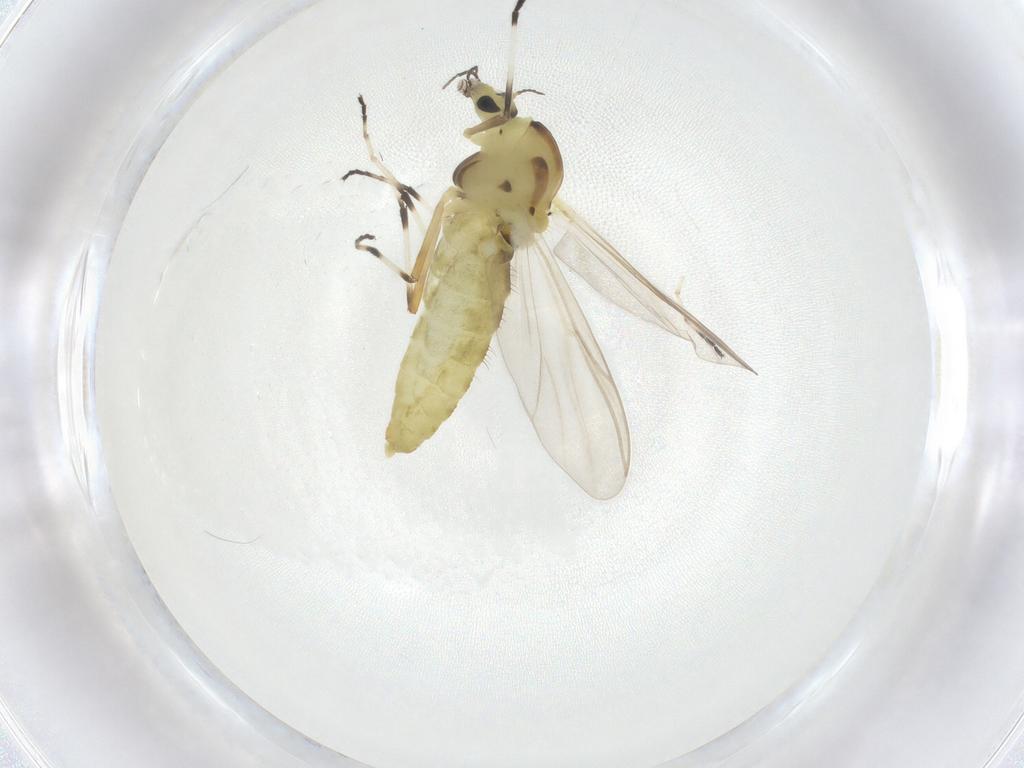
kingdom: Animalia
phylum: Arthropoda
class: Insecta
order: Diptera
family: Chironomidae
